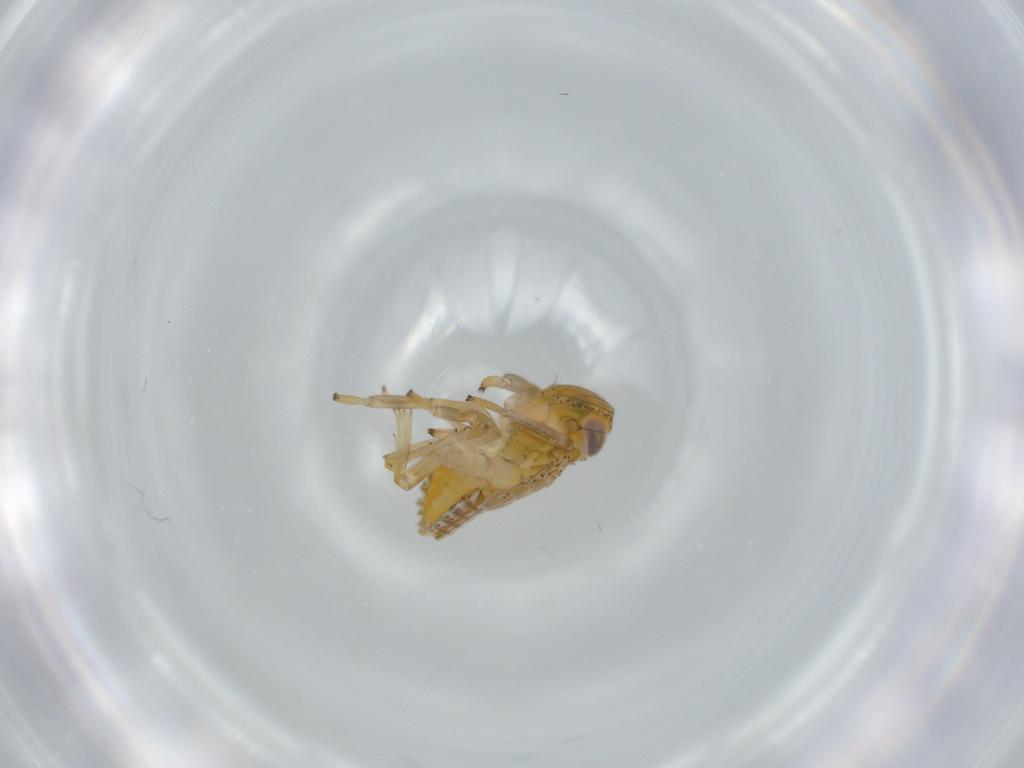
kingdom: Animalia
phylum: Arthropoda
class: Insecta
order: Hemiptera
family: Issidae
